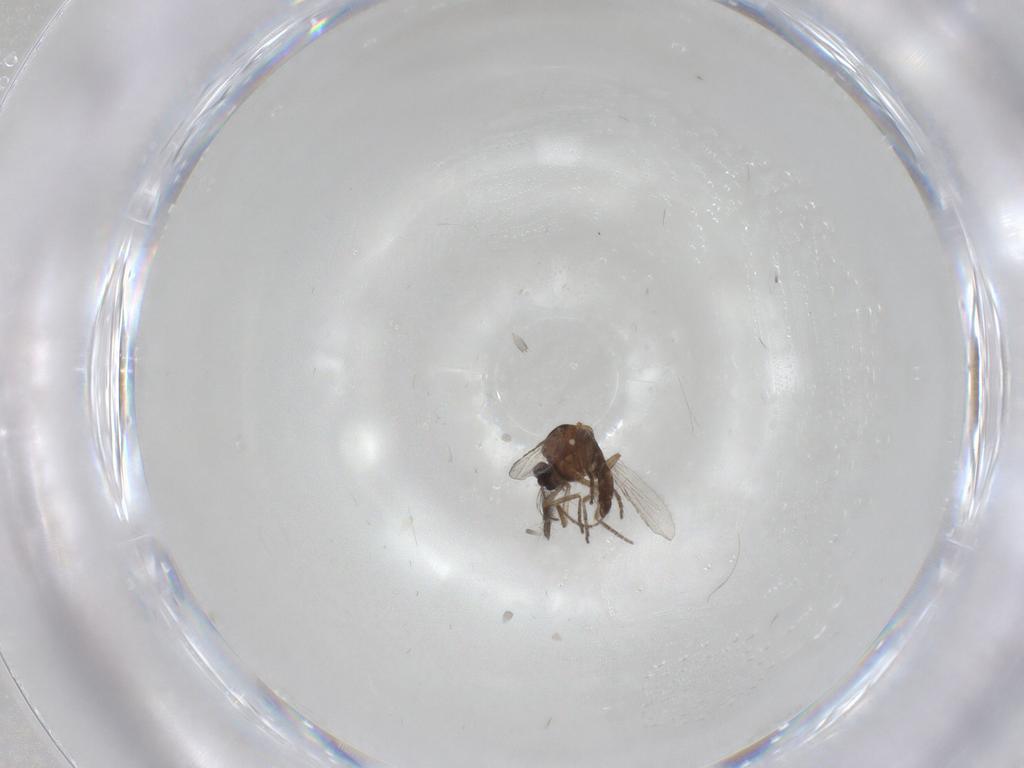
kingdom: Animalia
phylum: Arthropoda
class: Insecta
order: Diptera
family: Ceratopogonidae
